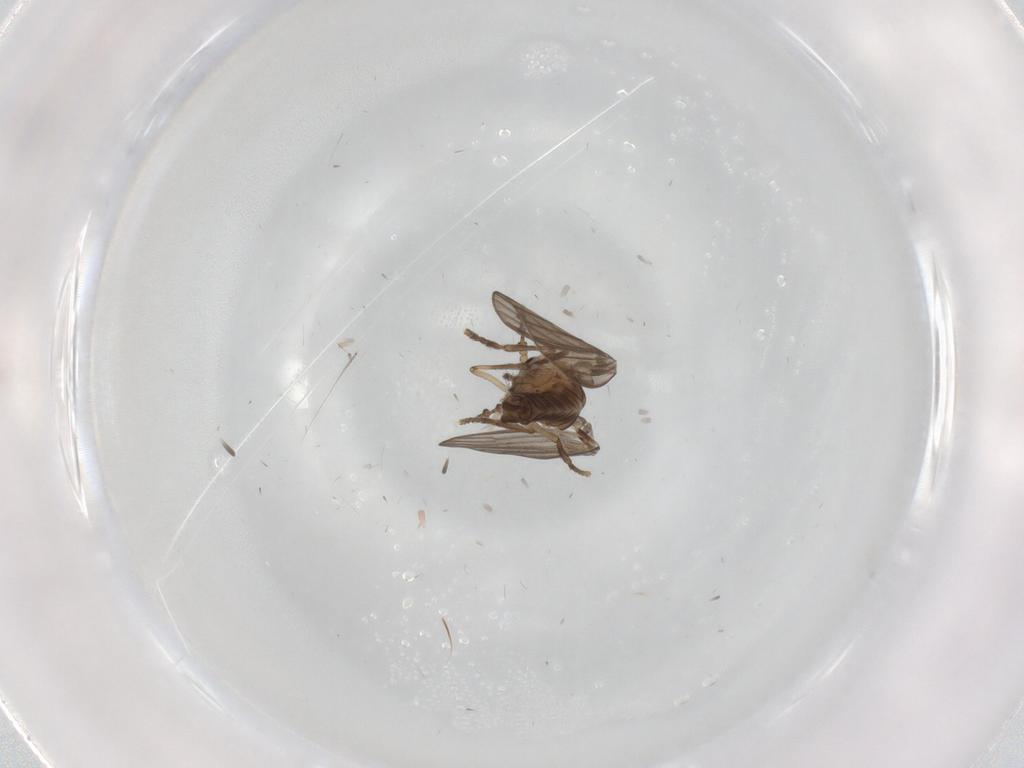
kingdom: Animalia
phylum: Arthropoda
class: Insecta
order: Diptera
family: Psychodidae
